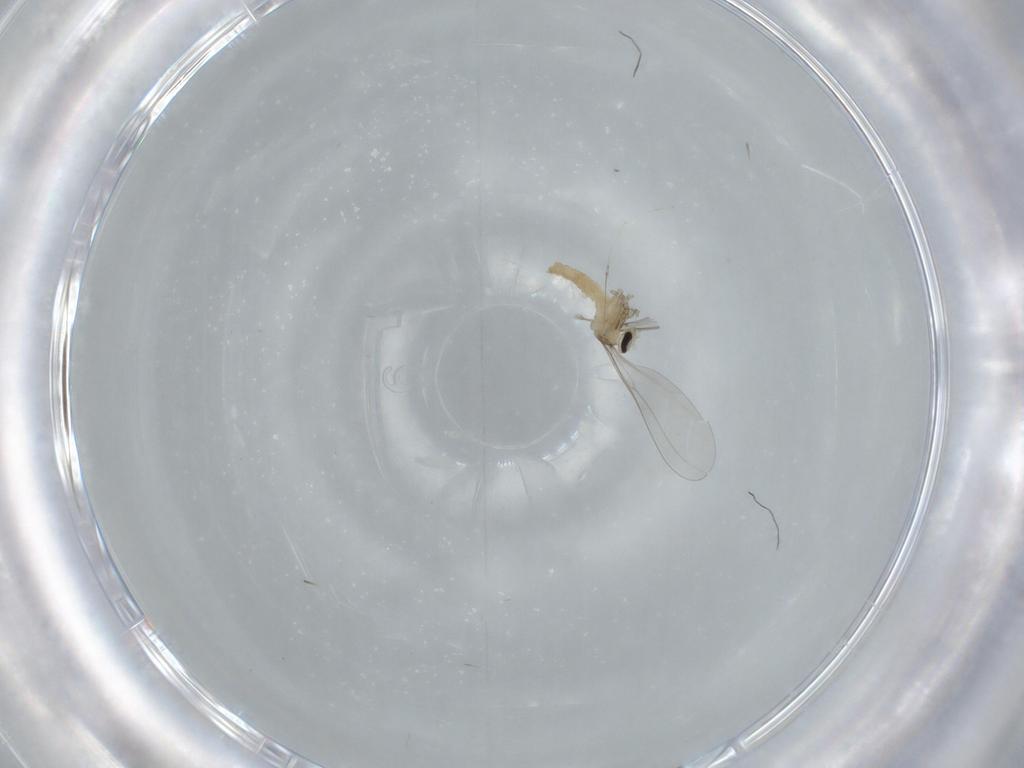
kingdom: Animalia
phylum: Arthropoda
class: Insecta
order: Diptera
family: Cecidomyiidae
